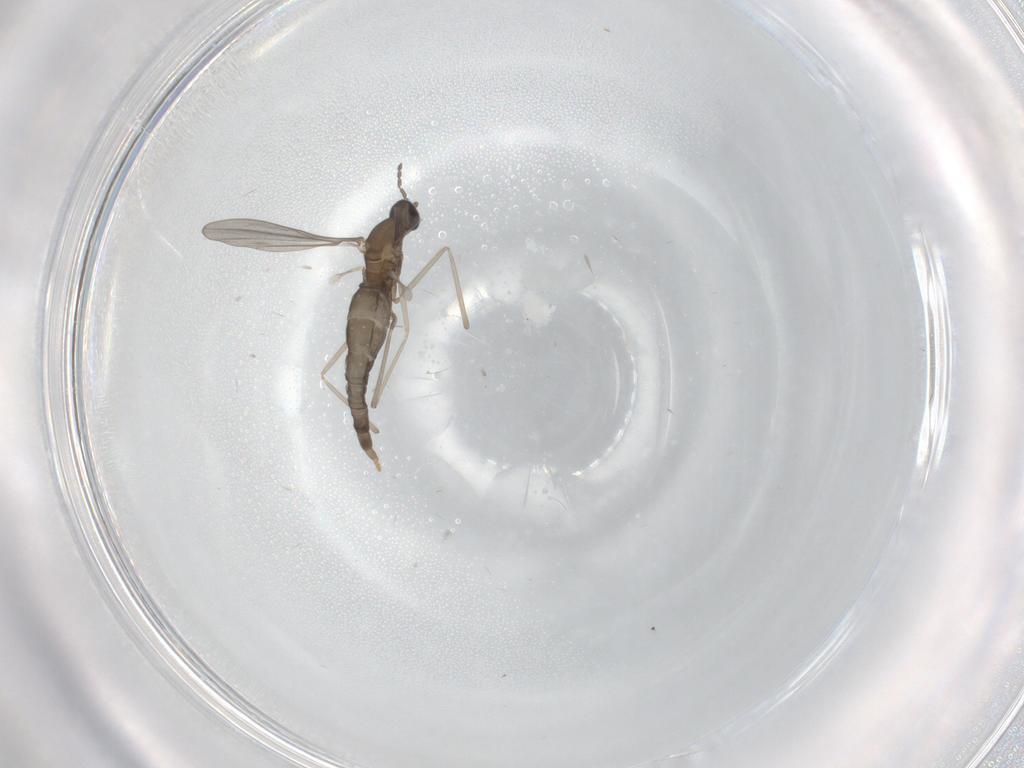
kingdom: Animalia
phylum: Arthropoda
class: Insecta
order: Diptera
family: Cecidomyiidae
